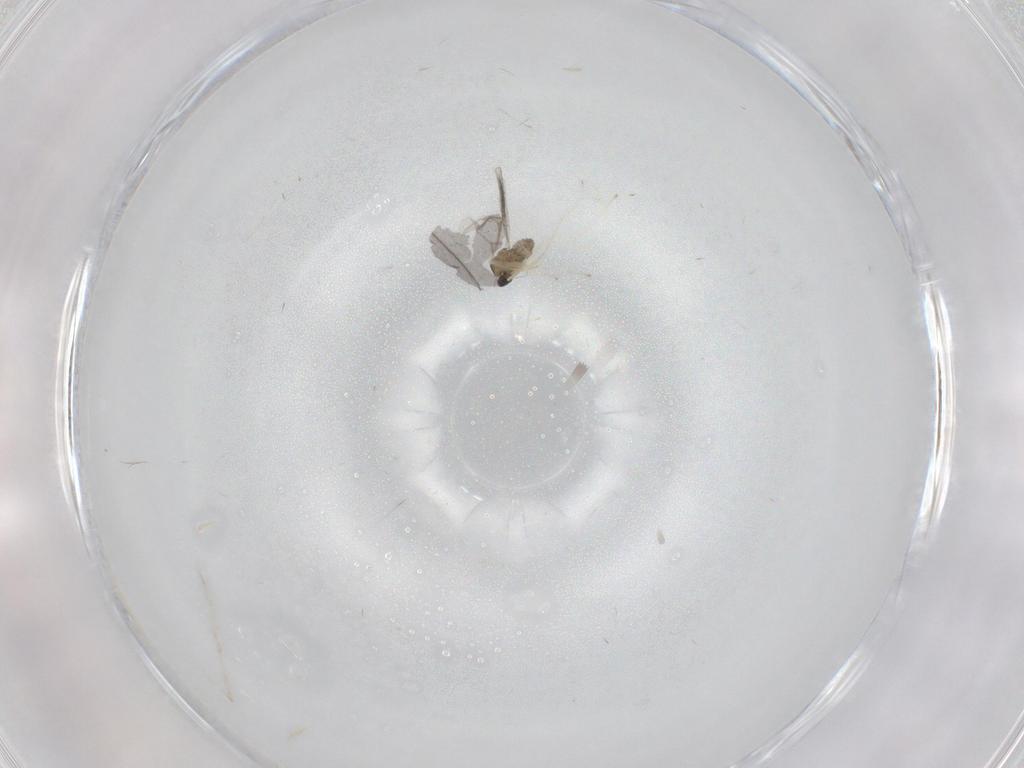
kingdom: Animalia
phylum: Arthropoda
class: Insecta
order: Diptera
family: Cecidomyiidae
